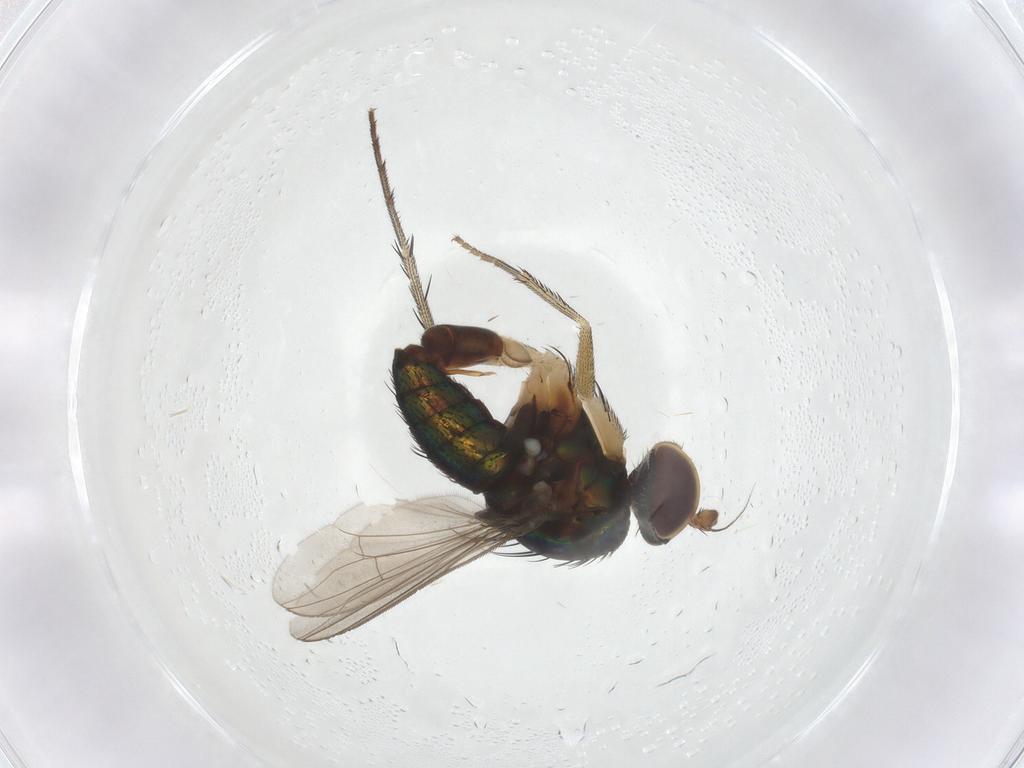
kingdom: Animalia
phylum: Arthropoda
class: Insecta
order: Diptera
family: Dolichopodidae
